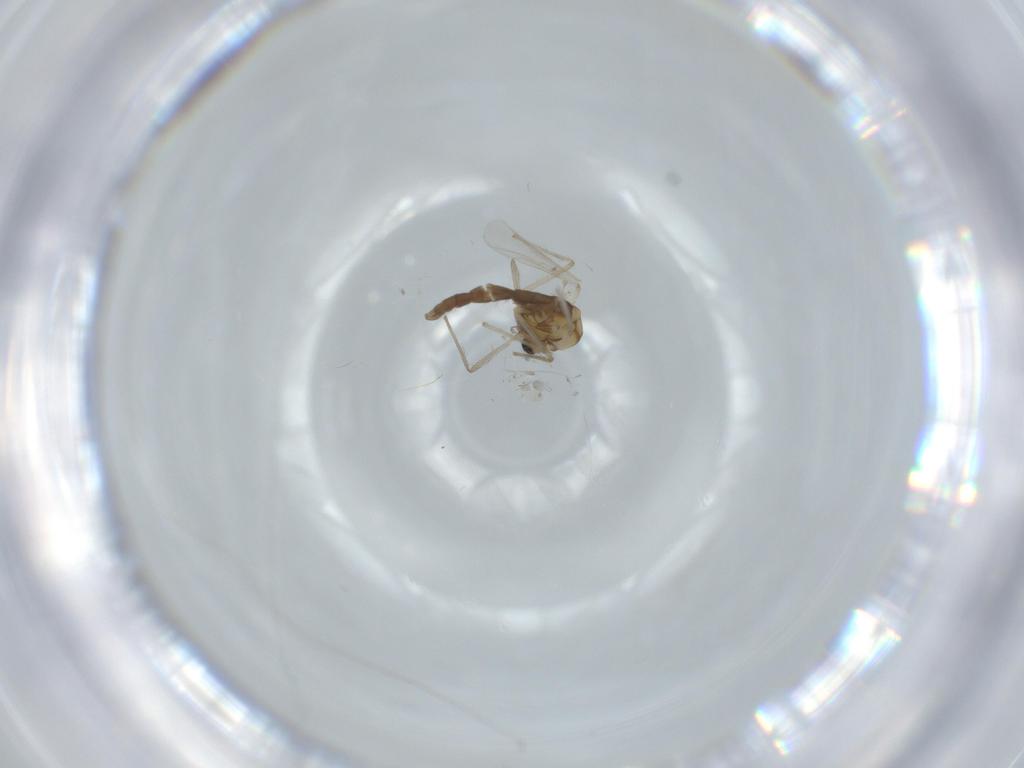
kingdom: Animalia
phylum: Arthropoda
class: Insecta
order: Diptera
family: Chironomidae
